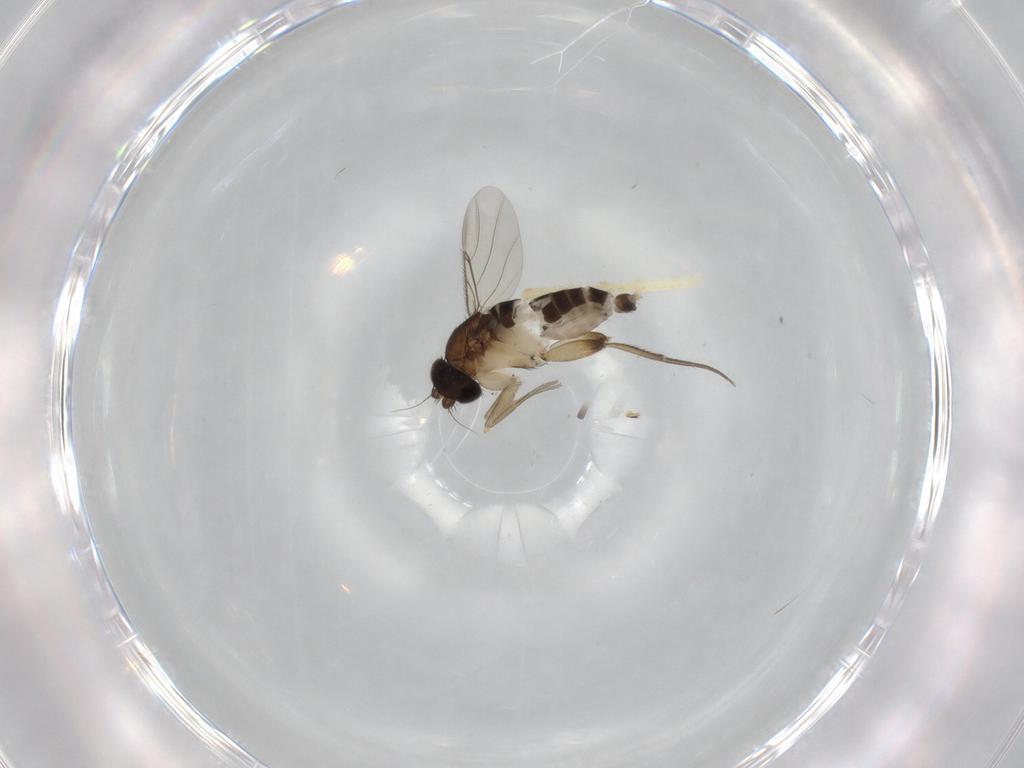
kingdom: Animalia
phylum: Arthropoda
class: Insecta
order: Diptera
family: Phoridae
